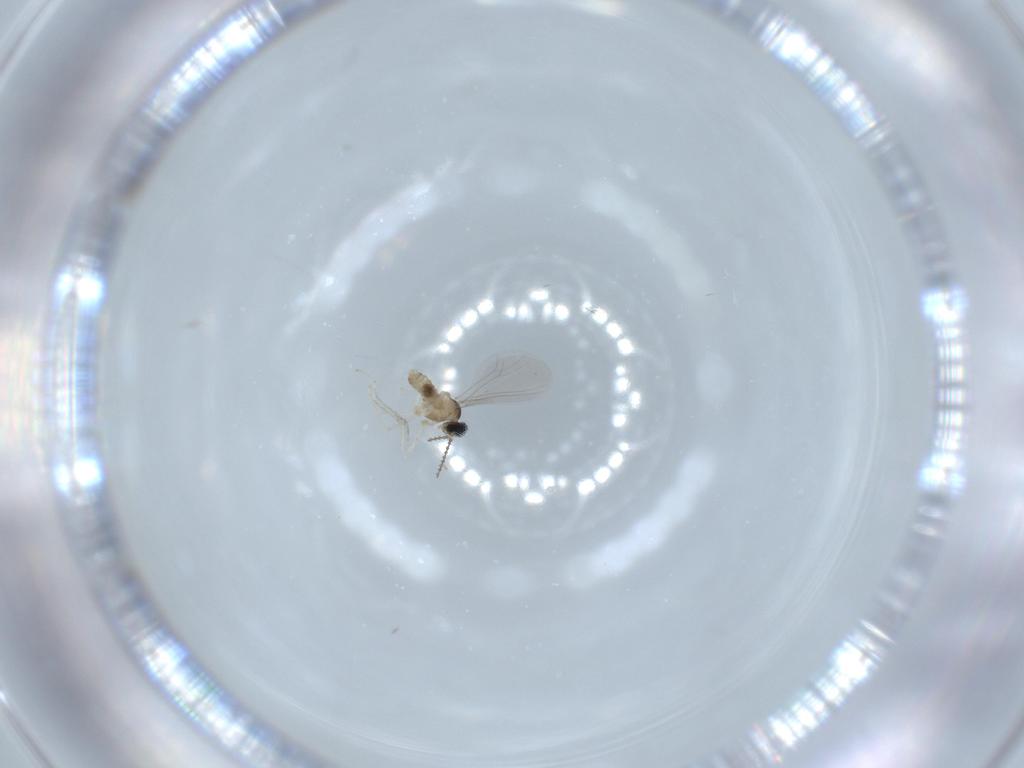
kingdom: Animalia
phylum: Arthropoda
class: Insecta
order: Diptera
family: Cecidomyiidae
